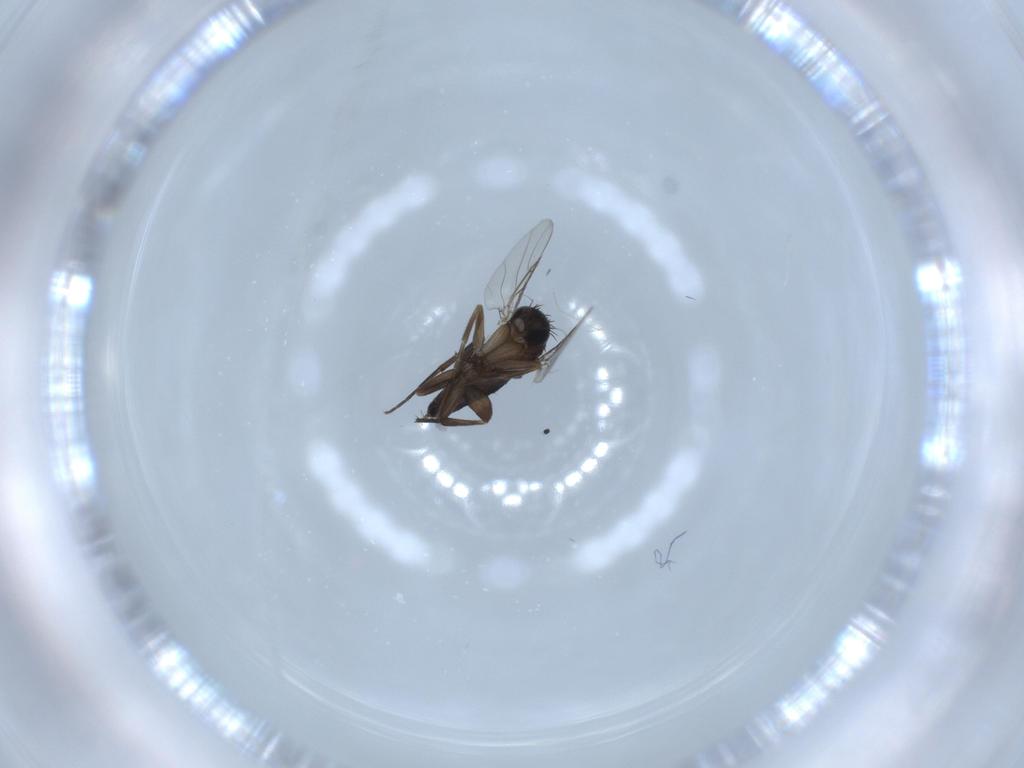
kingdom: Animalia
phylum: Arthropoda
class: Insecta
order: Diptera
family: Phoridae
